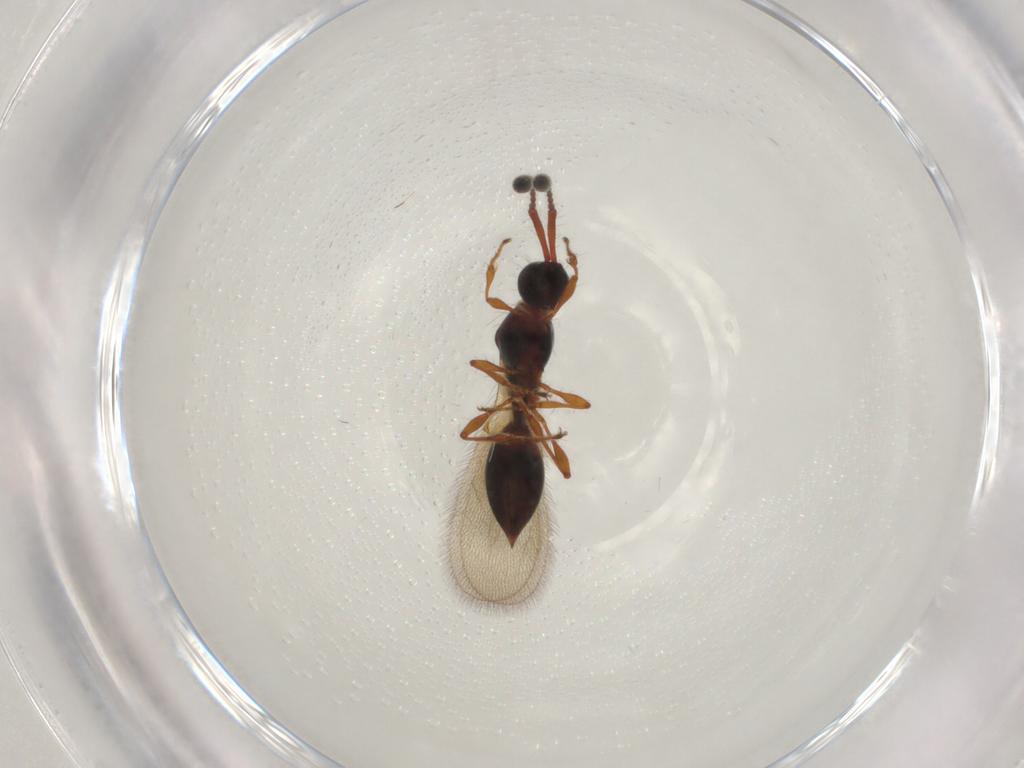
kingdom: Animalia
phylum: Arthropoda
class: Insecta
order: Hymenoptera
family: Diapriidae
